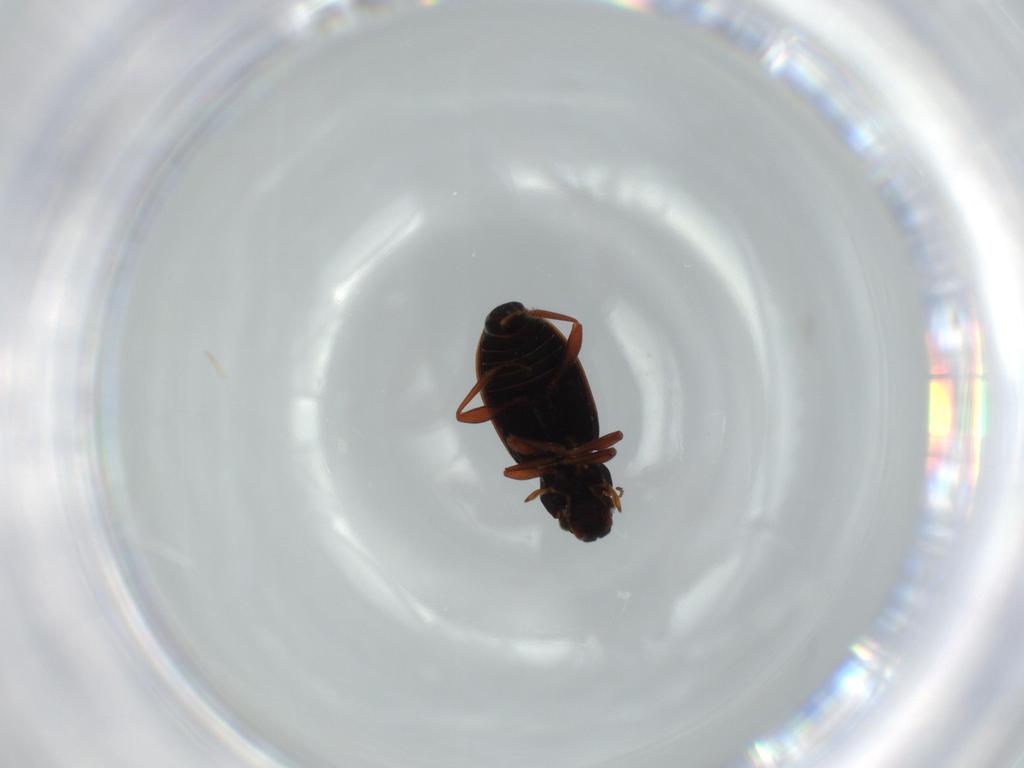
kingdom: Animalia
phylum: Arthropoda
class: Insecta
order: Coleoptera
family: Hydraenidae
